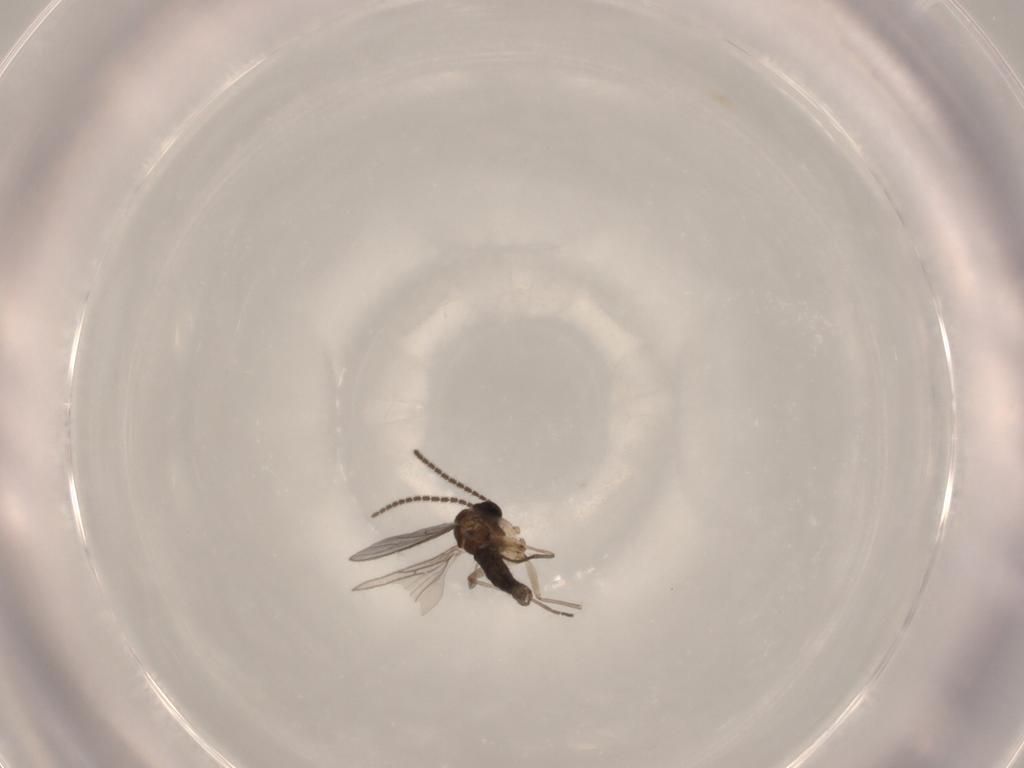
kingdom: Animalia
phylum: Arthropoda
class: Insecta
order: Diptera
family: Sciaridae
